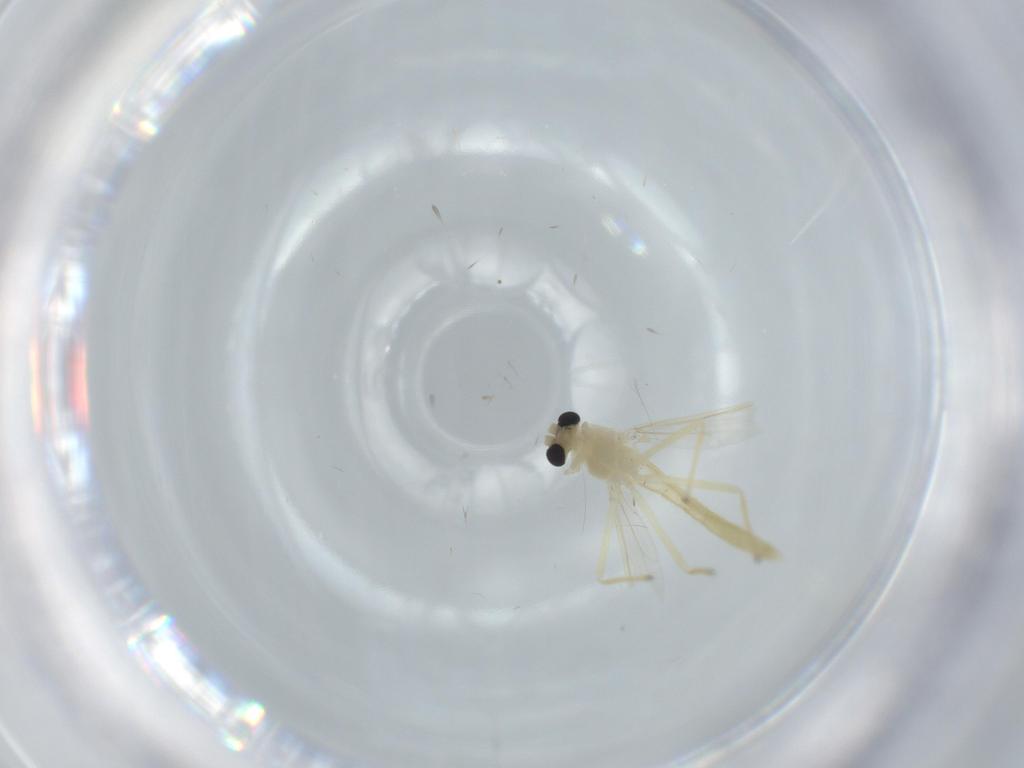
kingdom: Animalia
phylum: Arthropoda
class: Insecta
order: Diptera
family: Chironomidae
